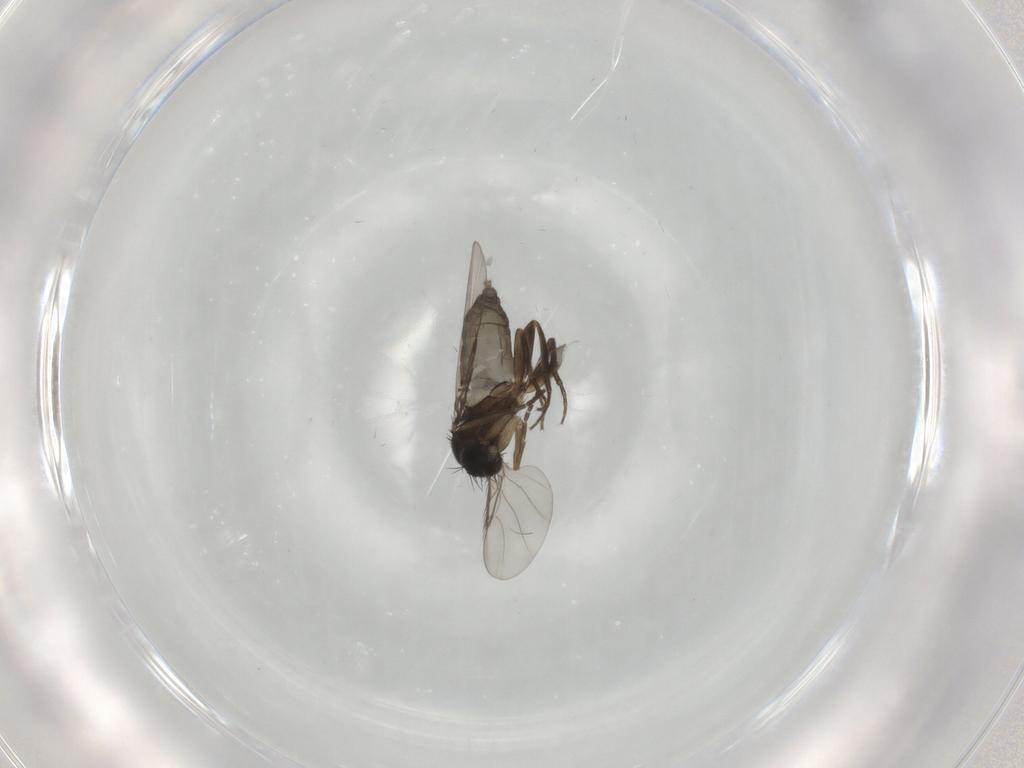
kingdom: Animalia
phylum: Arthropoda
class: Insecta
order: Diptera
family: Phoridae
